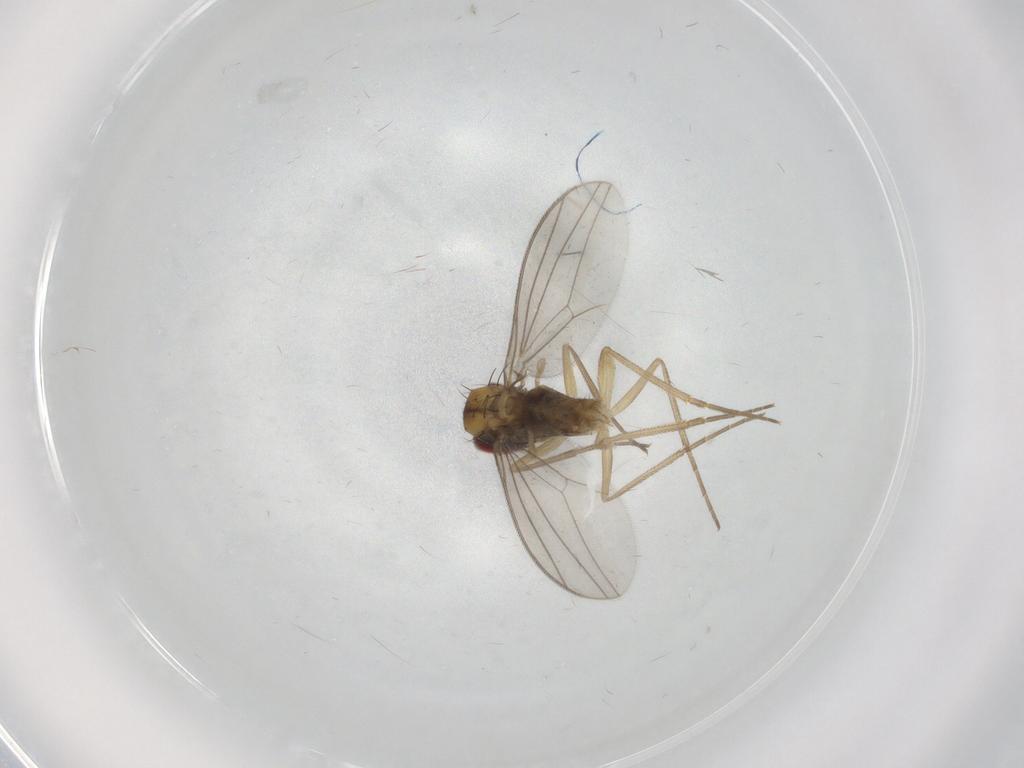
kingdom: Animalia
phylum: Arthropoda
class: Insecta
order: Diptera
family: Dolichopodidae
